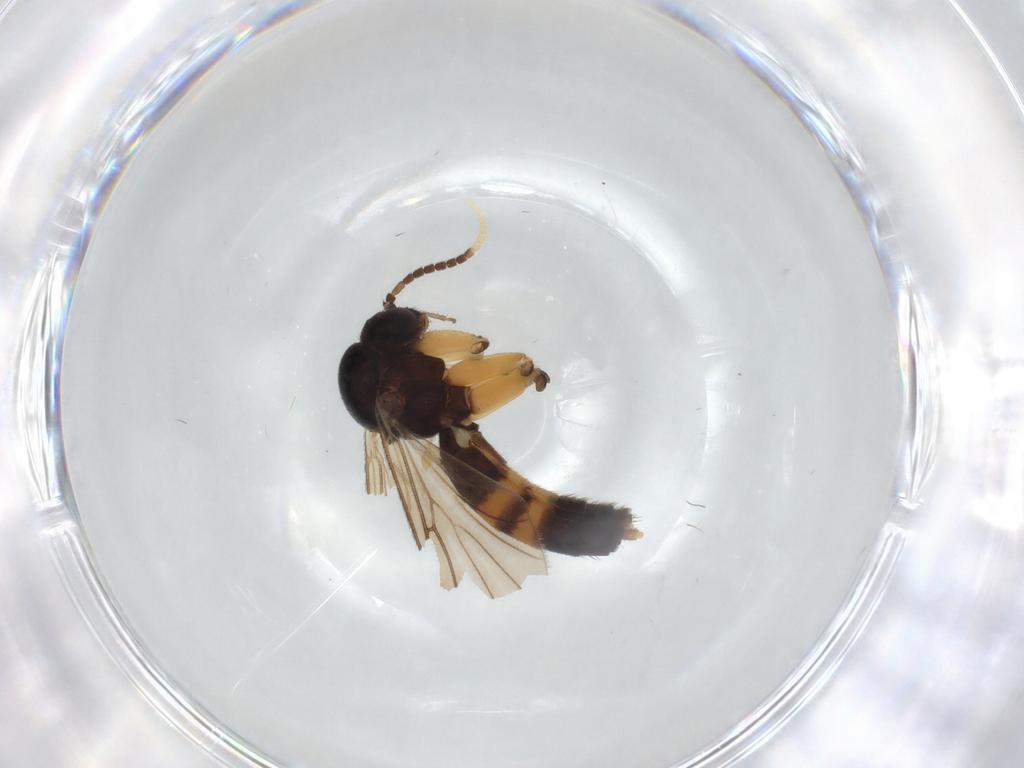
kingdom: Animalia
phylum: Arthropoda
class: Insecta
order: Diptera
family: Mycetophilidae
